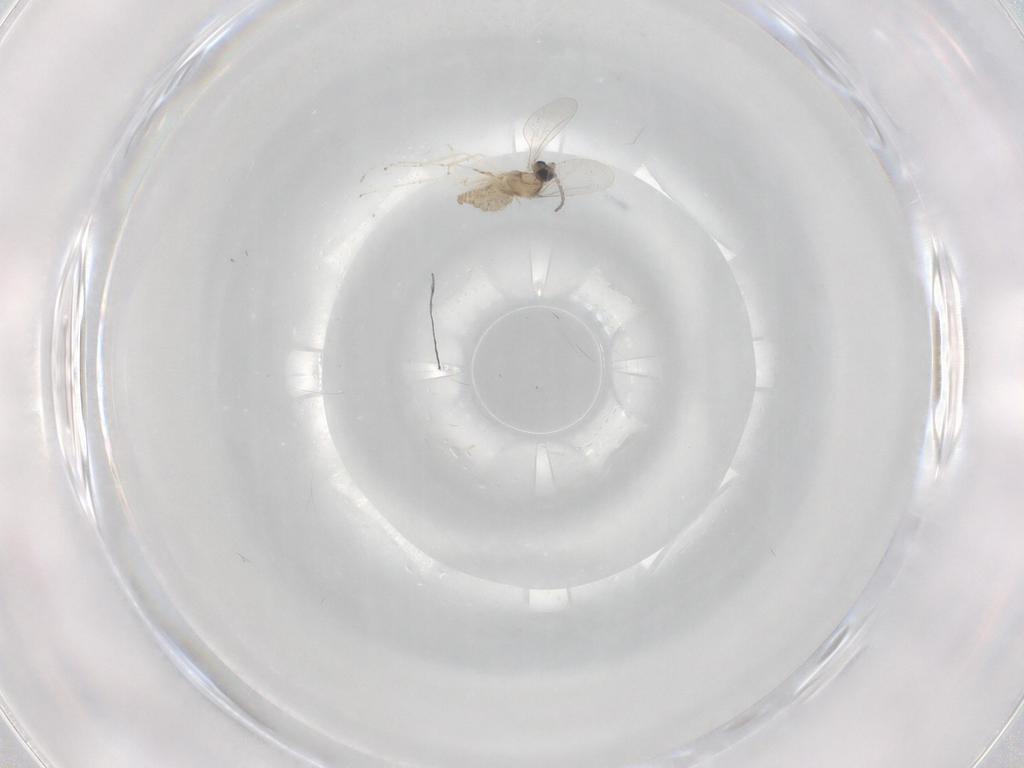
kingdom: Animalia
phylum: Arthropoda
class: Insecta
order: Diptera
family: Cecidomyiidae
